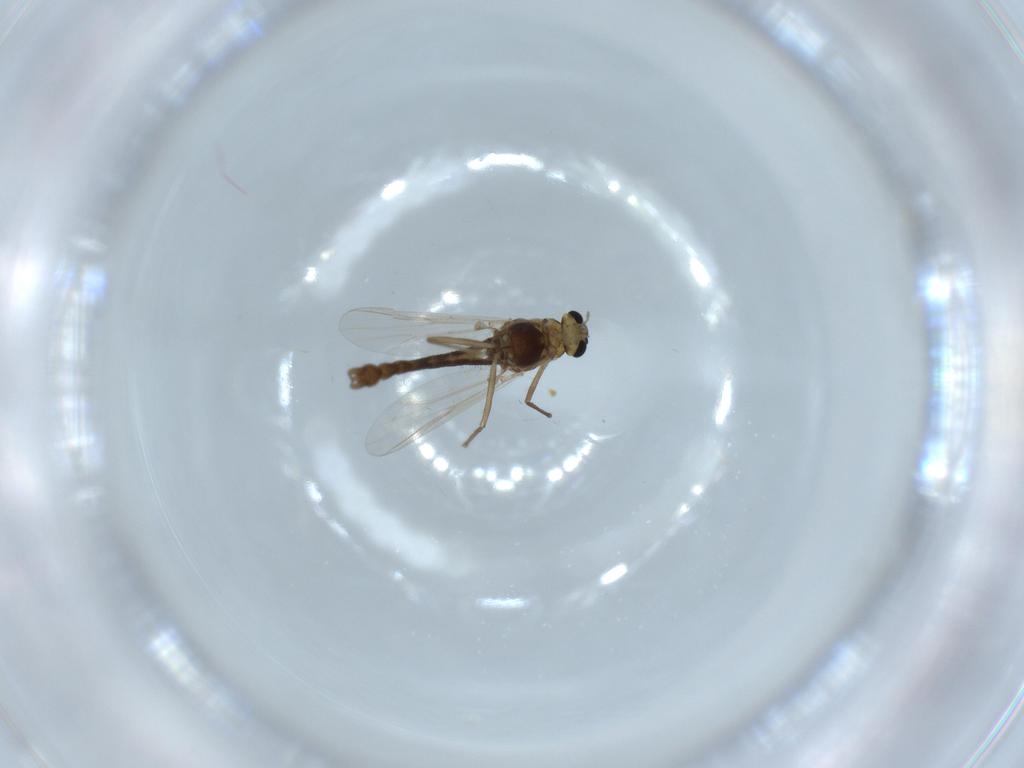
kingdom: Animalia
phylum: Arthropoda
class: Insecta
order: Diptera
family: Chironomidae
